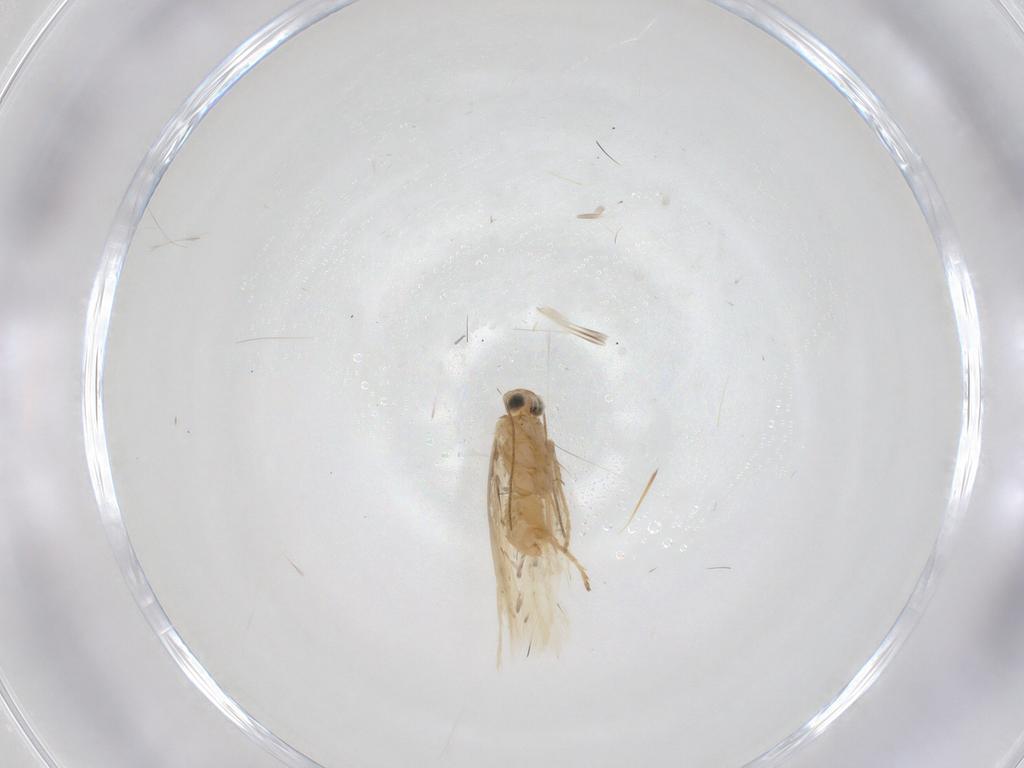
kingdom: Animalia
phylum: Arthropoda
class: Insecta
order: Lepidoptera
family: Tischeriidae
